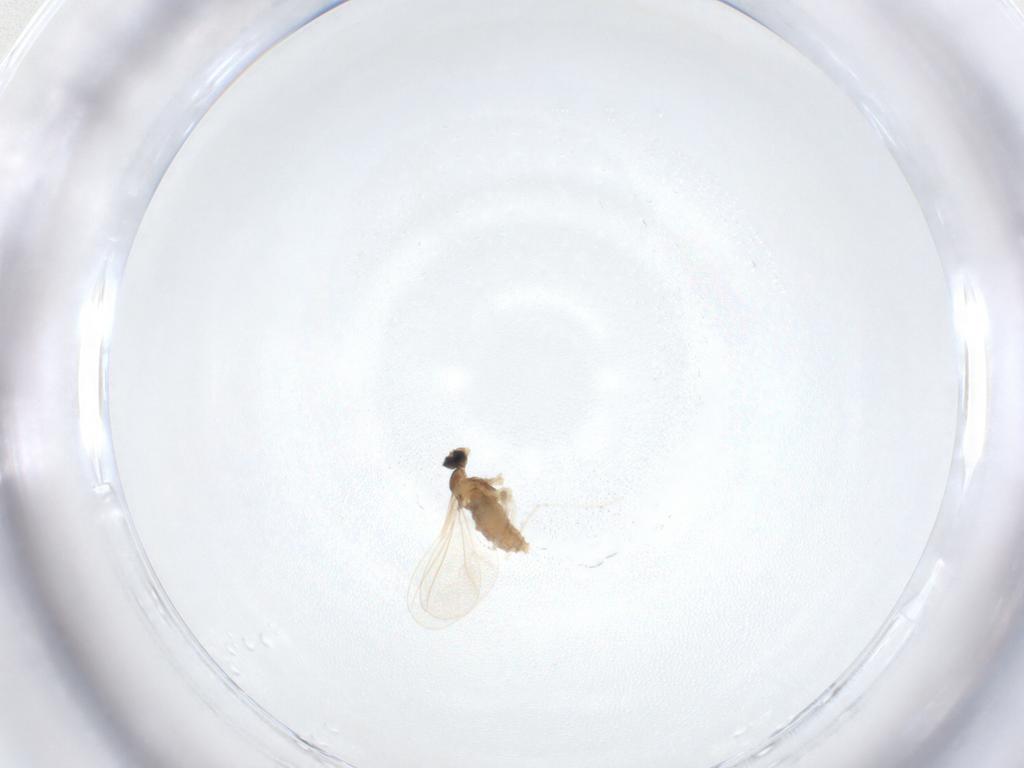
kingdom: Animalia
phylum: Arthropoda
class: Insecta
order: Diptera
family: Cecidomyiidae
